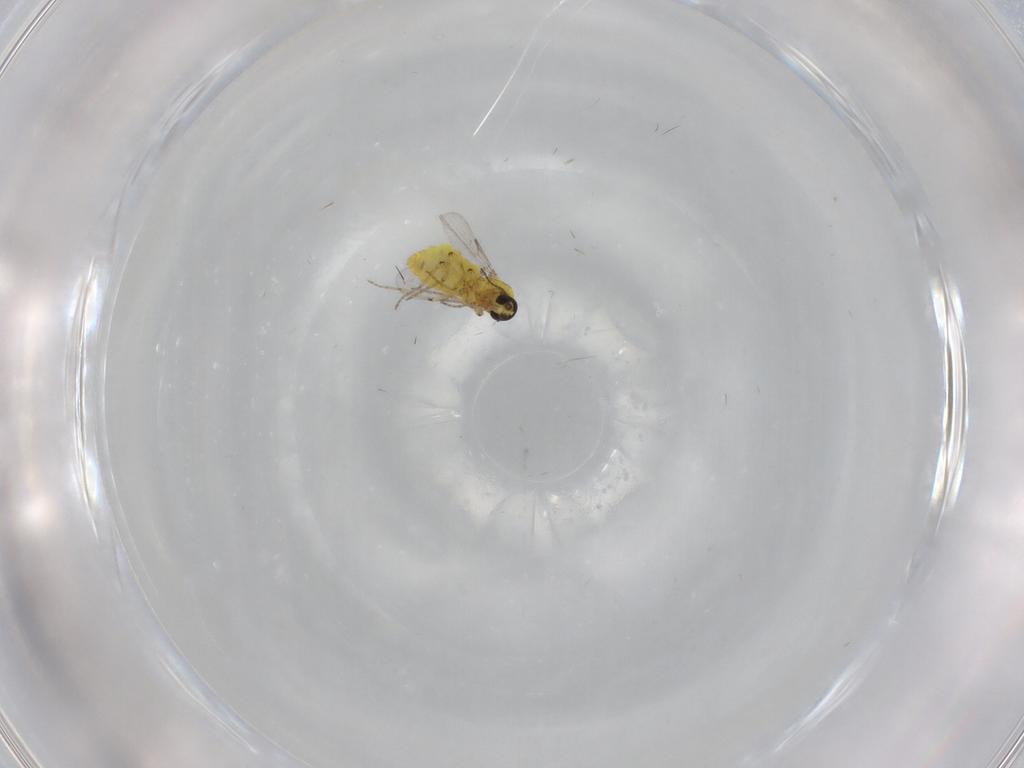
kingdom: Animalia
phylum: Arthropoda
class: Insecta
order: Diptera
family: Ceratopogonidae
